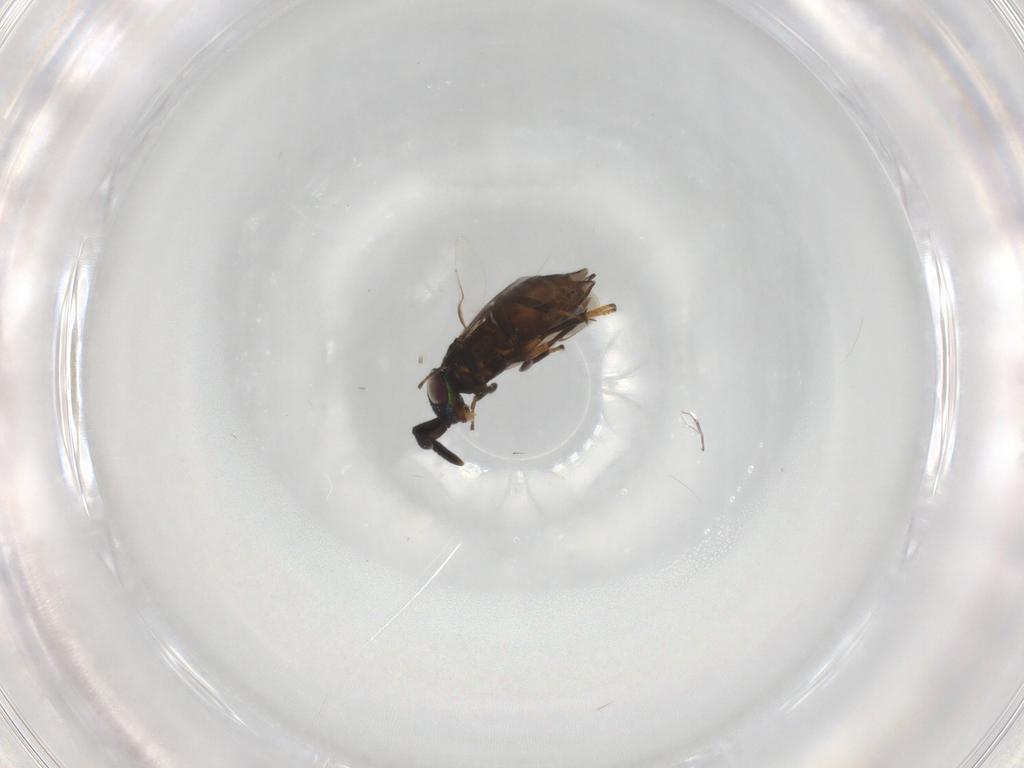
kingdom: Animalia
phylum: Arthropoda
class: Insecta
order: Hymenoptera
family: Encyrtidae
